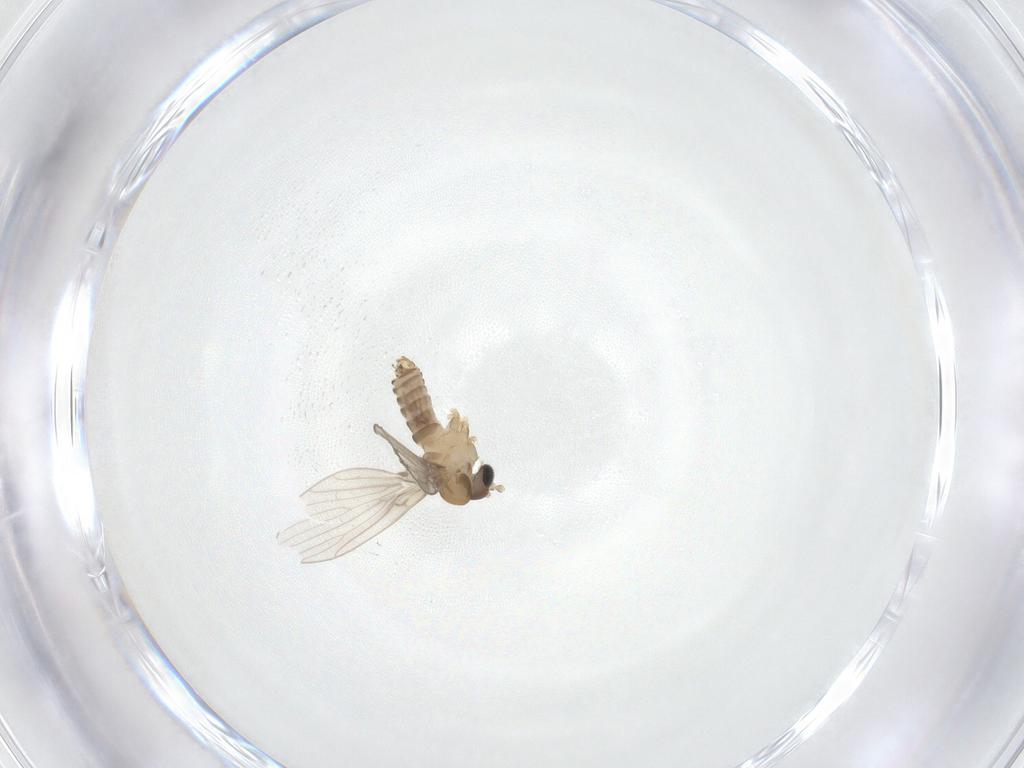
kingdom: Animalia
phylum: Arthropoda
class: Insecta
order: Diptera
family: Psychodidae
